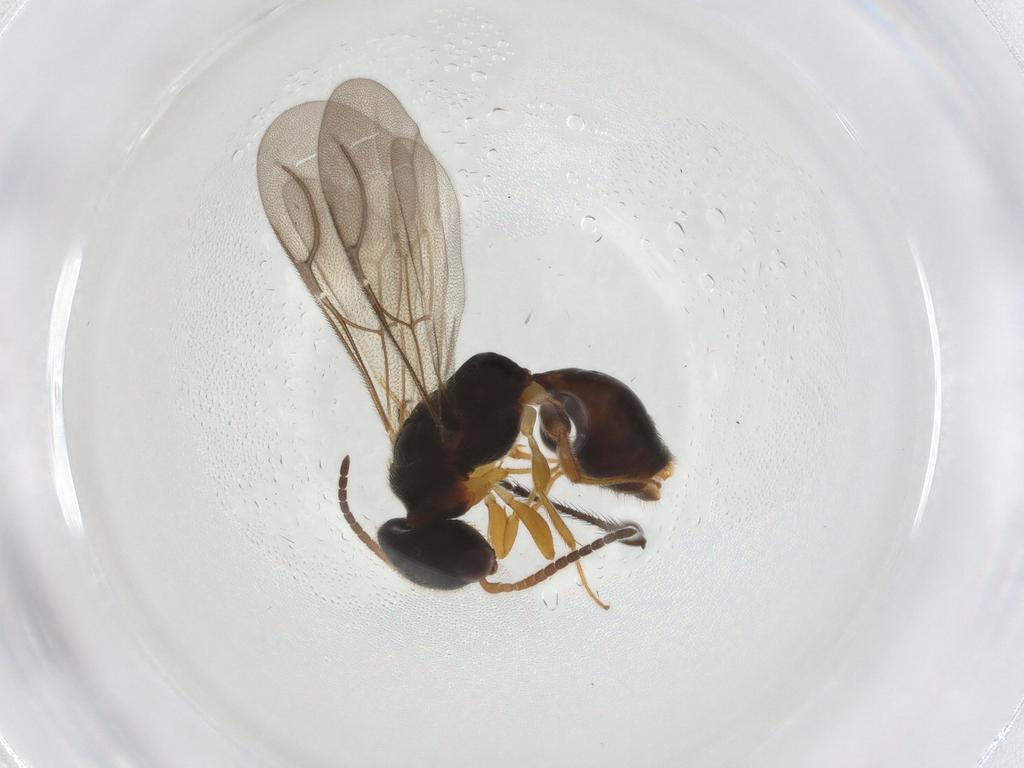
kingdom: Animalia
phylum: Arthropoda
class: Insecta
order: Hymenoptera
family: Bethylidae
